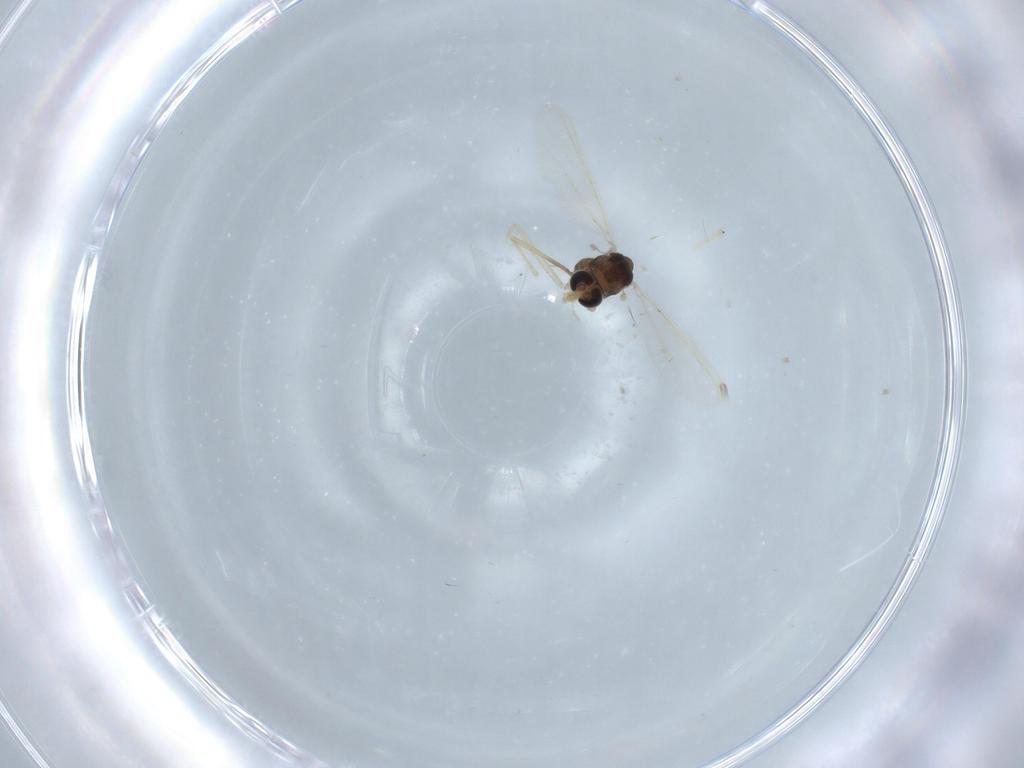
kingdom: Animalia
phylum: Arthropoda
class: Insecta
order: Diptera
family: Chironomidae
